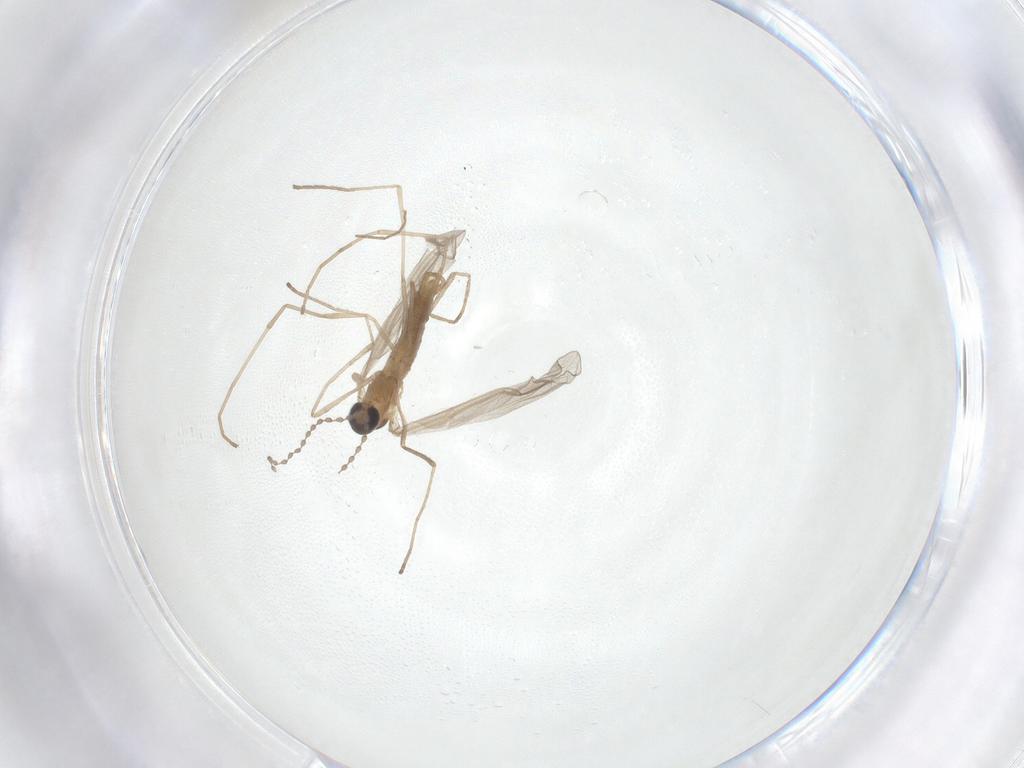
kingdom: Animalia
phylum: Arthropoda
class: Insecta
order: Diptera
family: Cecidomyiidae
